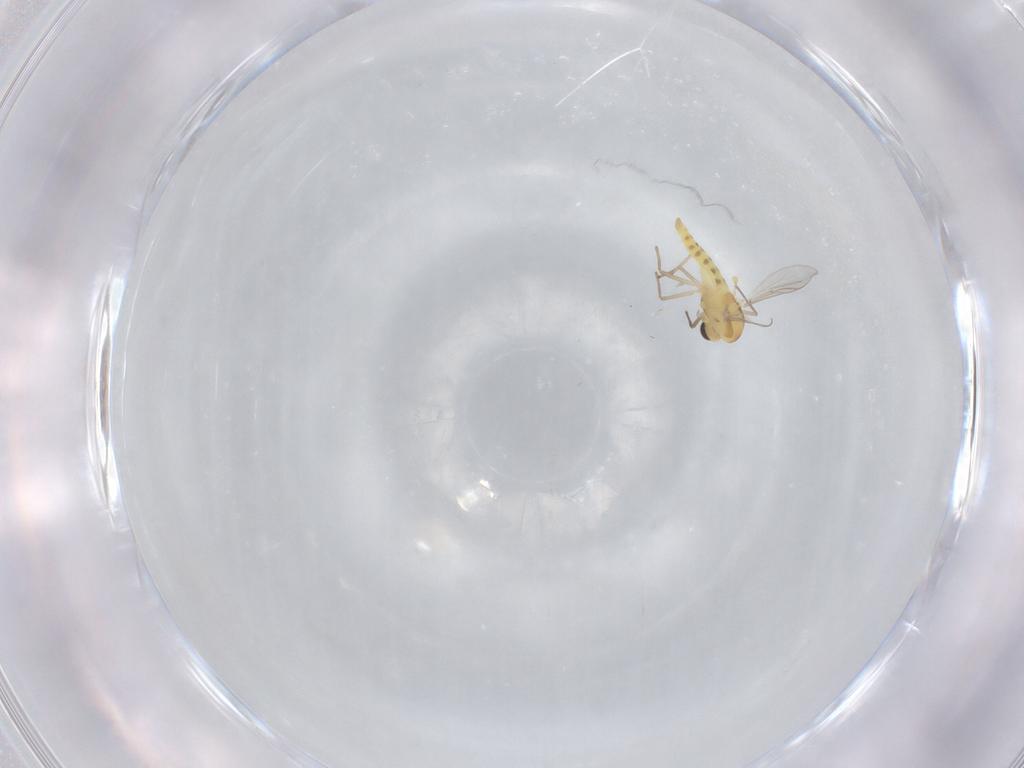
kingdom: Animalia
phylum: Arthropoda
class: Insecta
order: Diptera
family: Chironomidae
